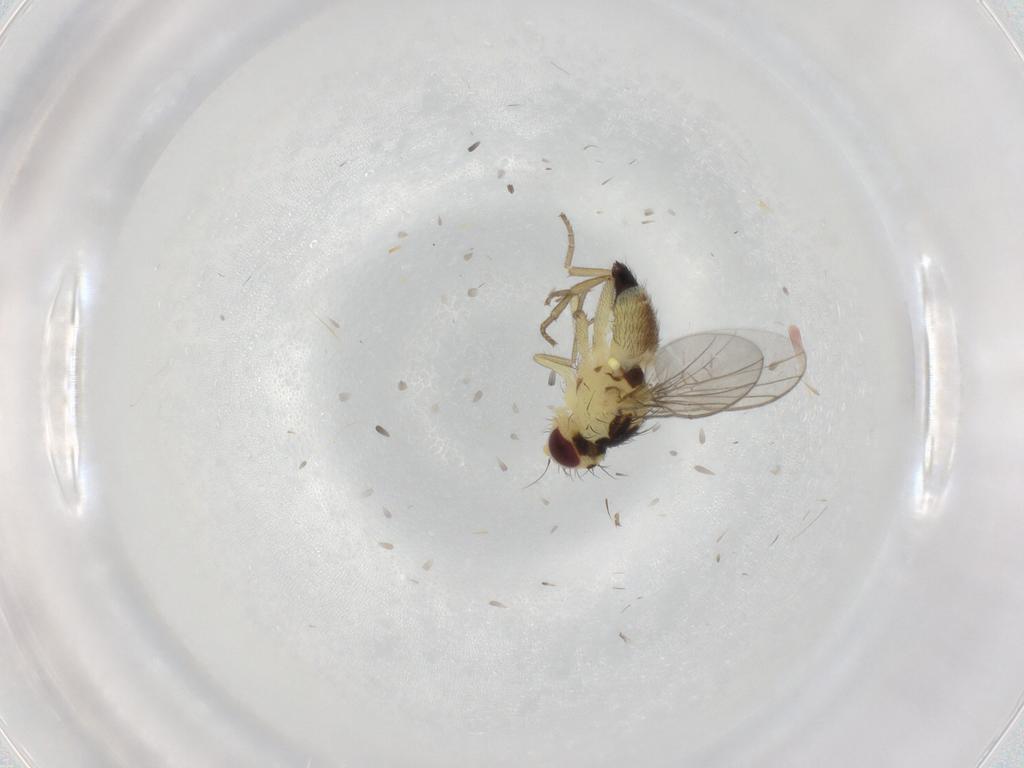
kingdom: Animalia
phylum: Arthropoda
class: Insecta
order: Diptera
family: Agromyzidae
